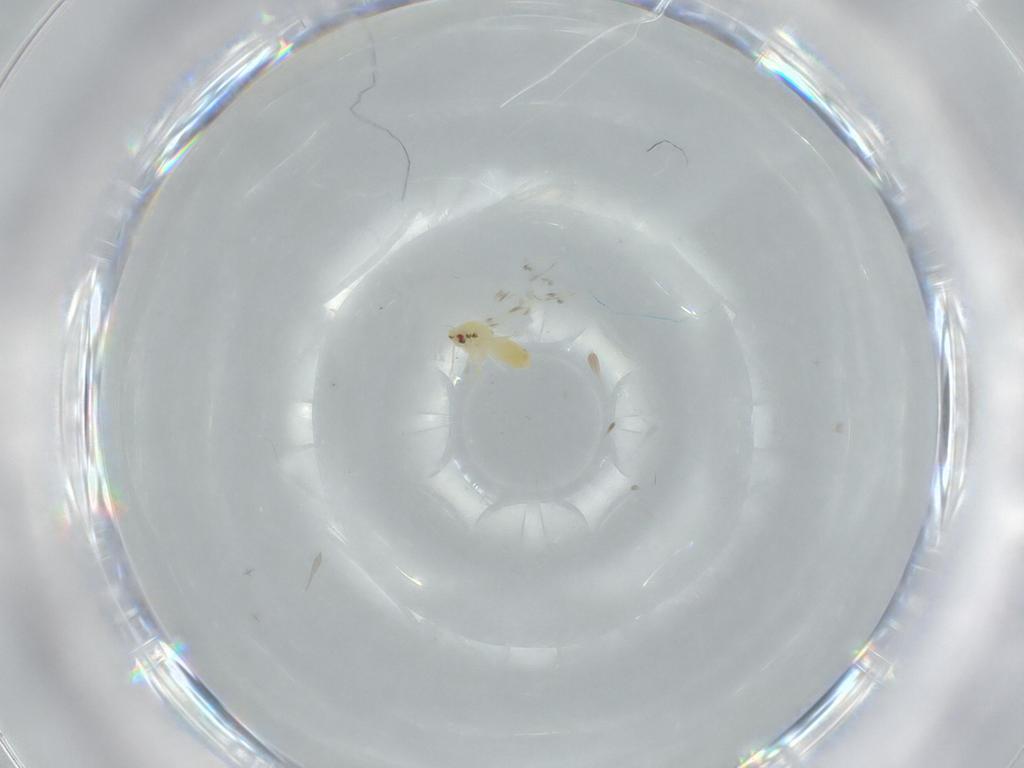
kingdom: Animalia
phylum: Arthropoda
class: Insecta
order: Hemiptera
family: Aleyrodidae
